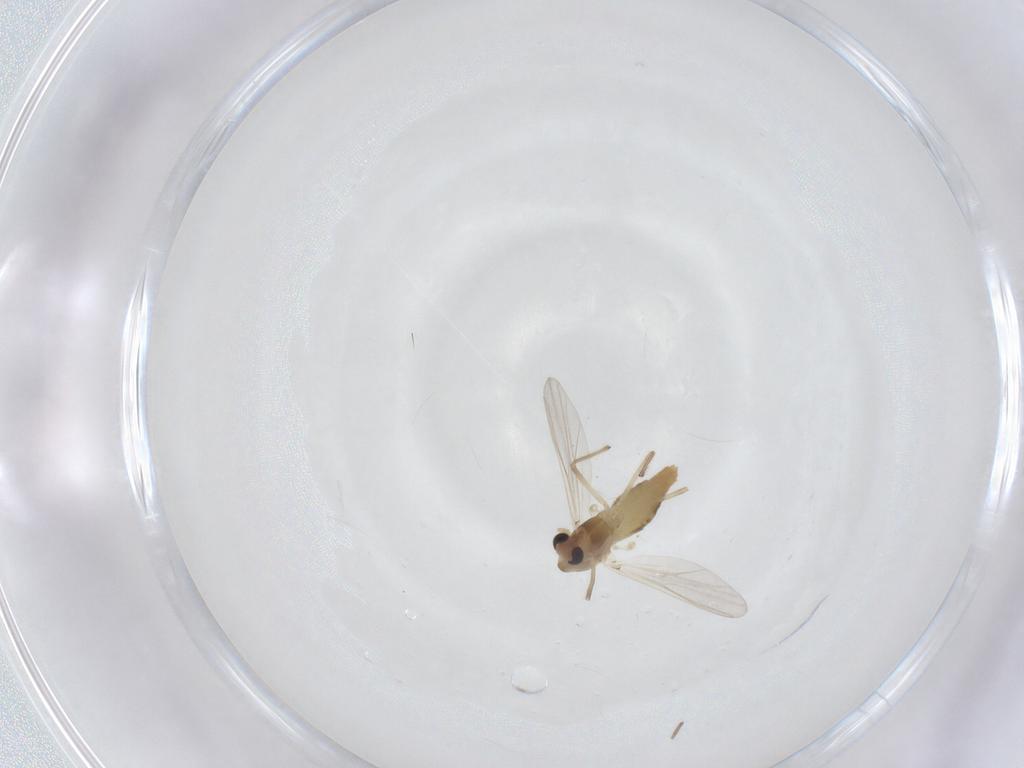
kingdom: Animalia
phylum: Arthropoda
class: Insecta
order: Diptera
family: Chironomidae
